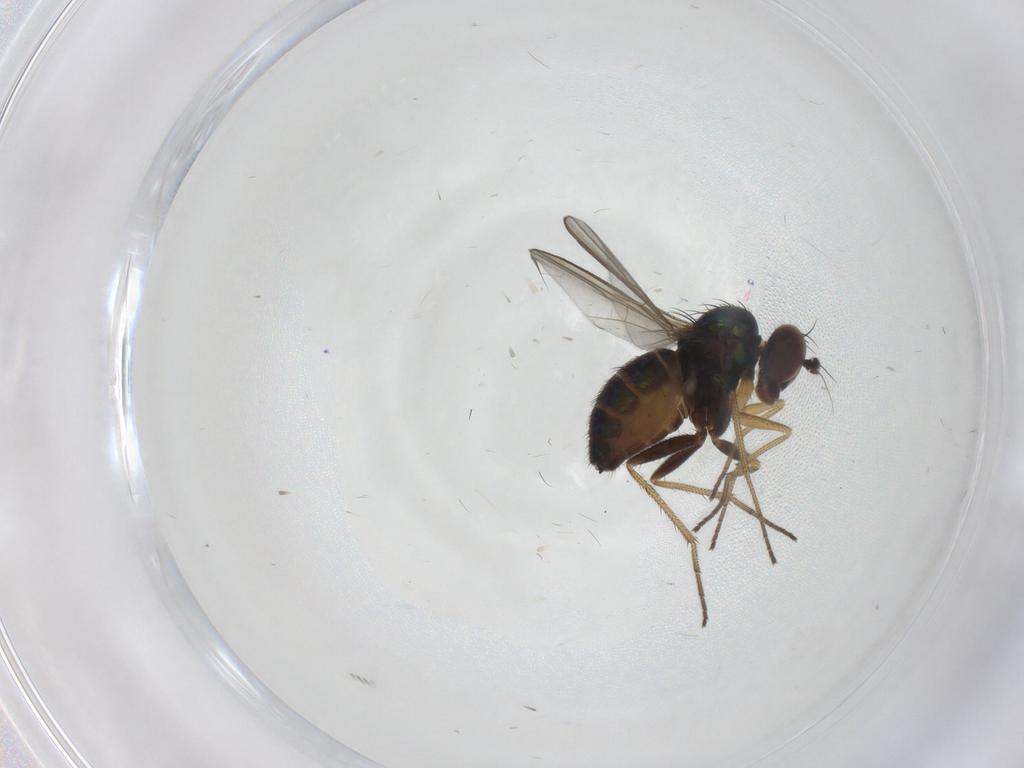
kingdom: Animalia
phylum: Arthropoda
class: Insecta
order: Diptera
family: Dolichopodidae
